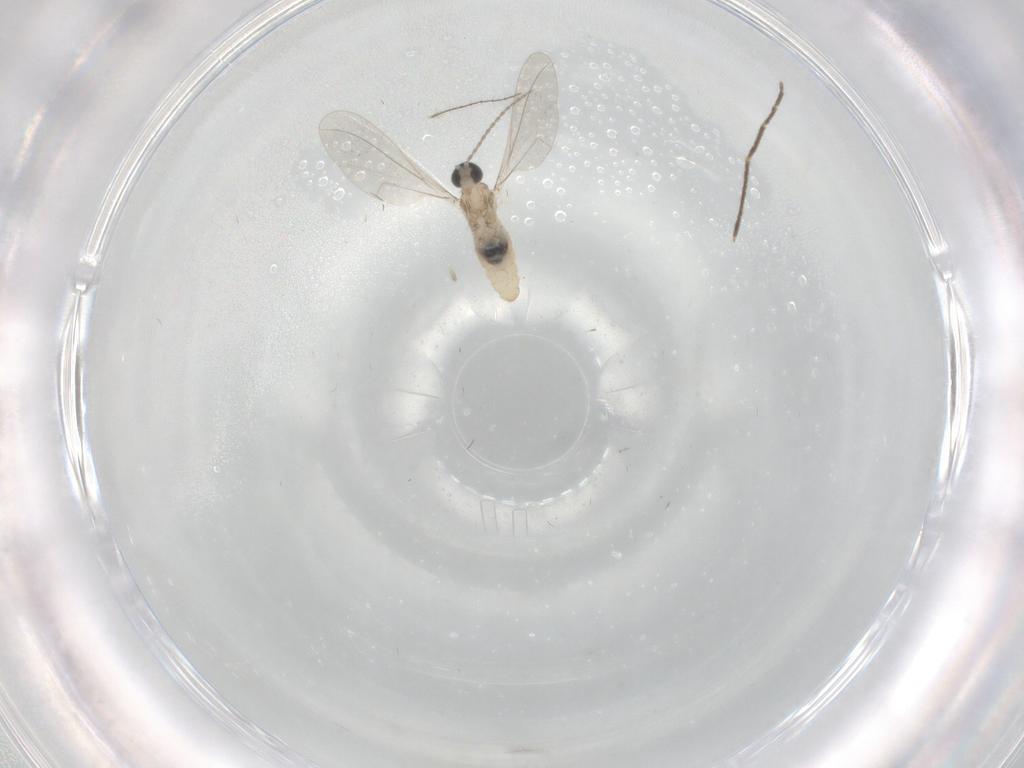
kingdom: Animalia
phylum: Arthropoda
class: Insecta
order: Diptera
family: Chironomidae
